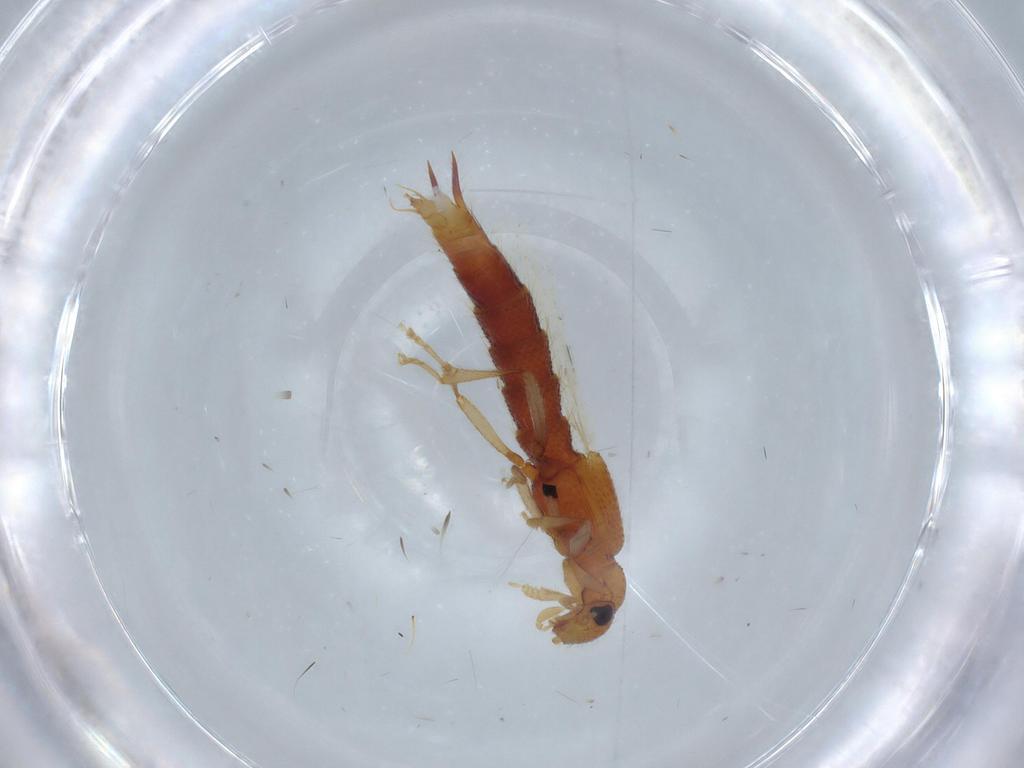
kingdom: Animalia
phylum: Arthropoda
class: Insecta
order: Coleoptera
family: Staphylinidae
